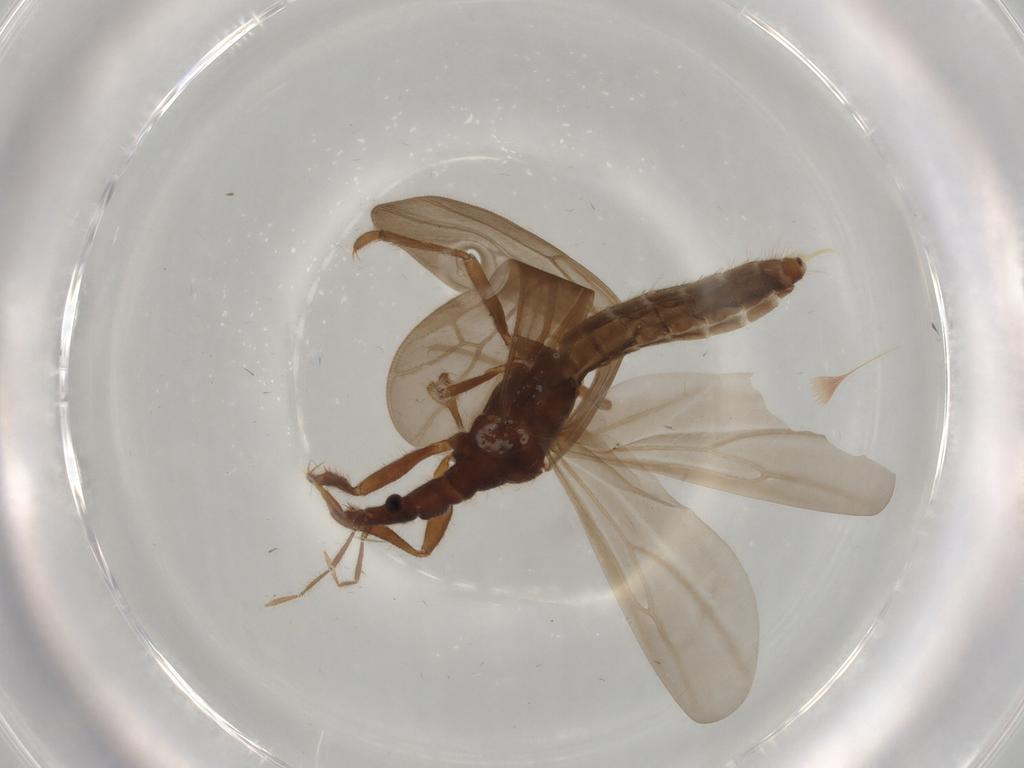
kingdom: Animalia
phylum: Arthropoda
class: Insecta
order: Hemiptera
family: Enicocephalidae
